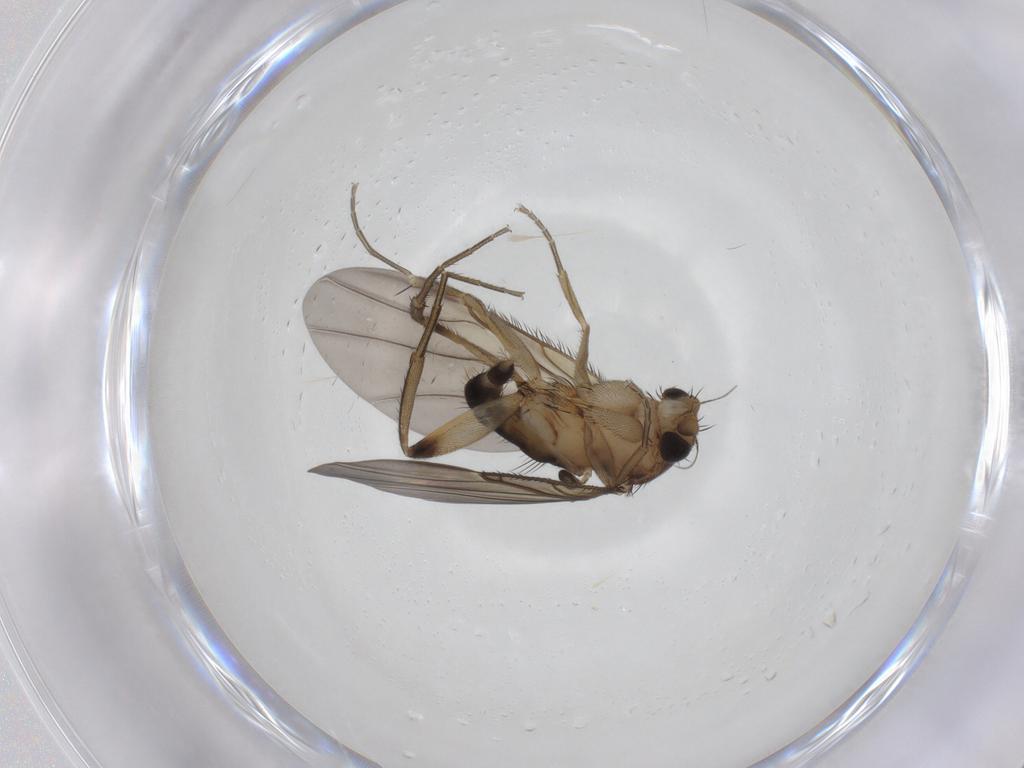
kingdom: Animalia
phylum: Arthropoda
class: Insecta
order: Diptera
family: Phoridae
